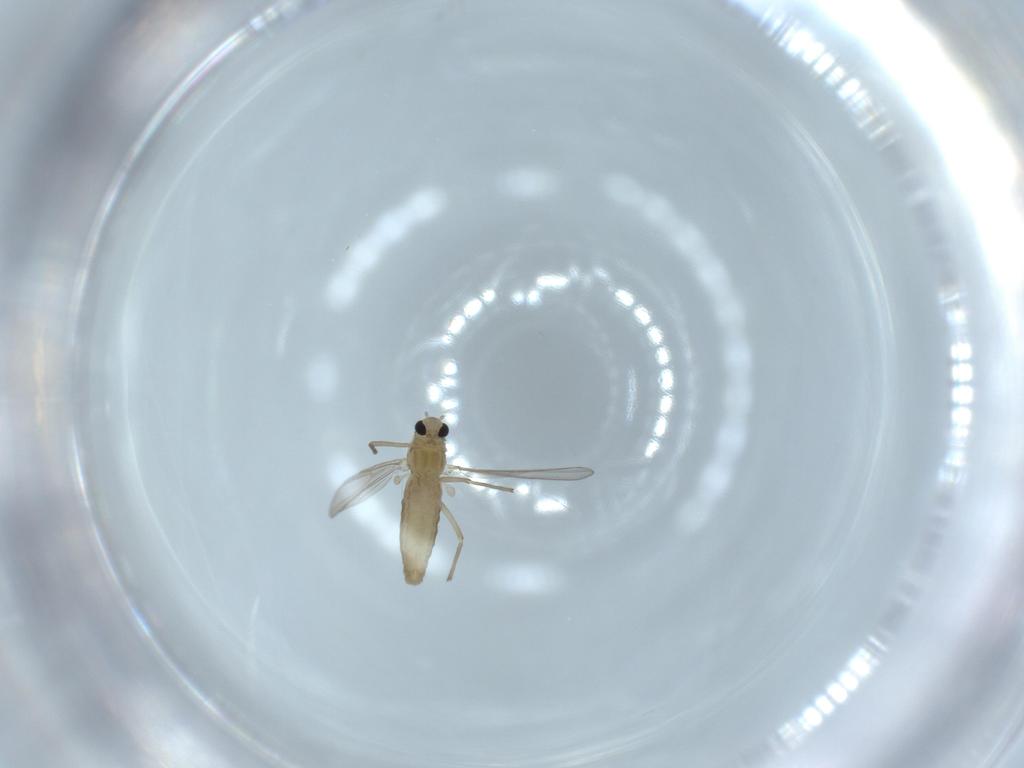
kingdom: Animalia
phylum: Arthropoda
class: Insecta
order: Diptera
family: Chironomidae
